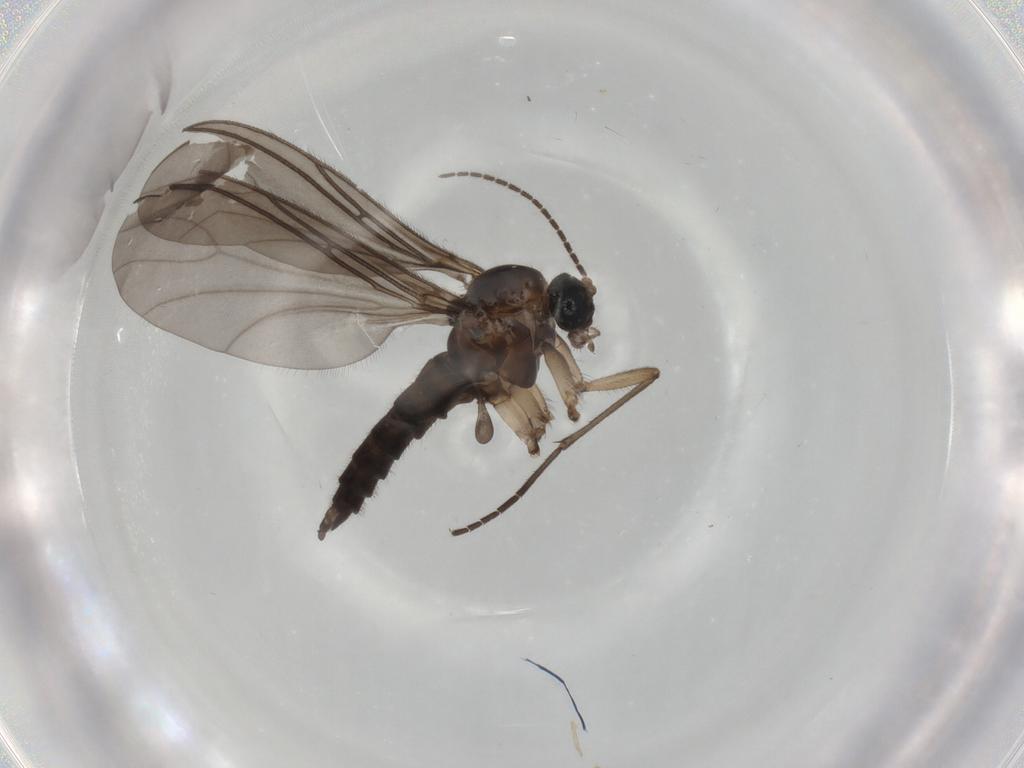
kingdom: Animalia
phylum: Arthropoda
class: Insecta
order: Diptera
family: Sciaridae
